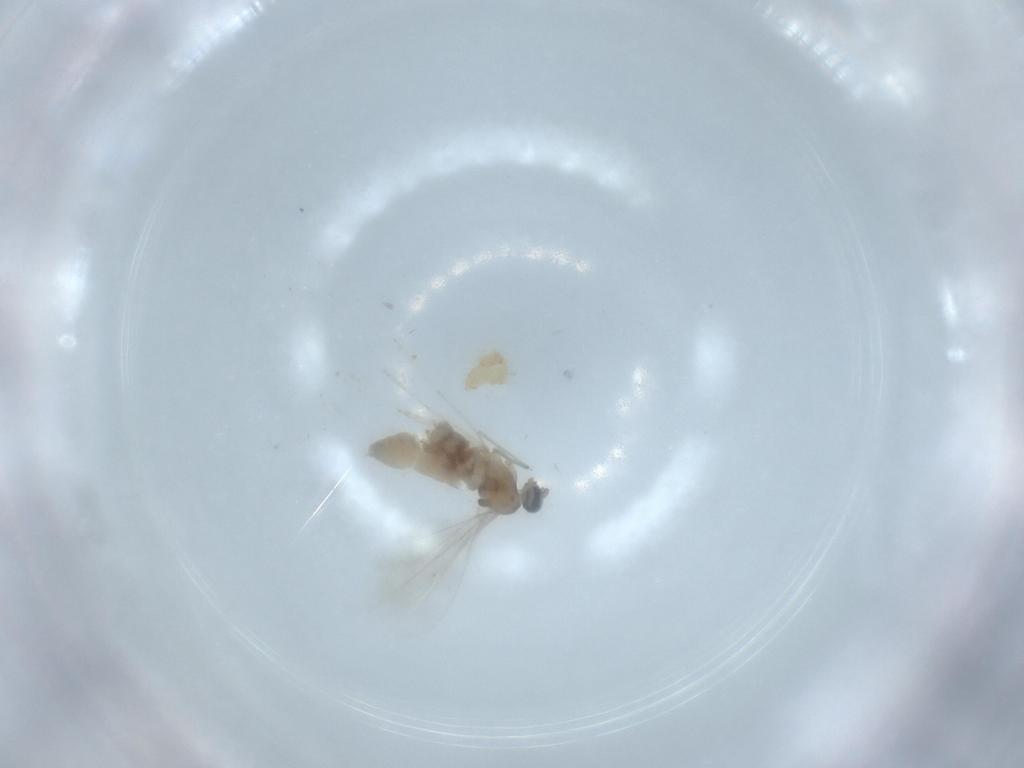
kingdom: Animalia
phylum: Arthropoda
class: Insecta
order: Diptera
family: Cecidomyiidae
